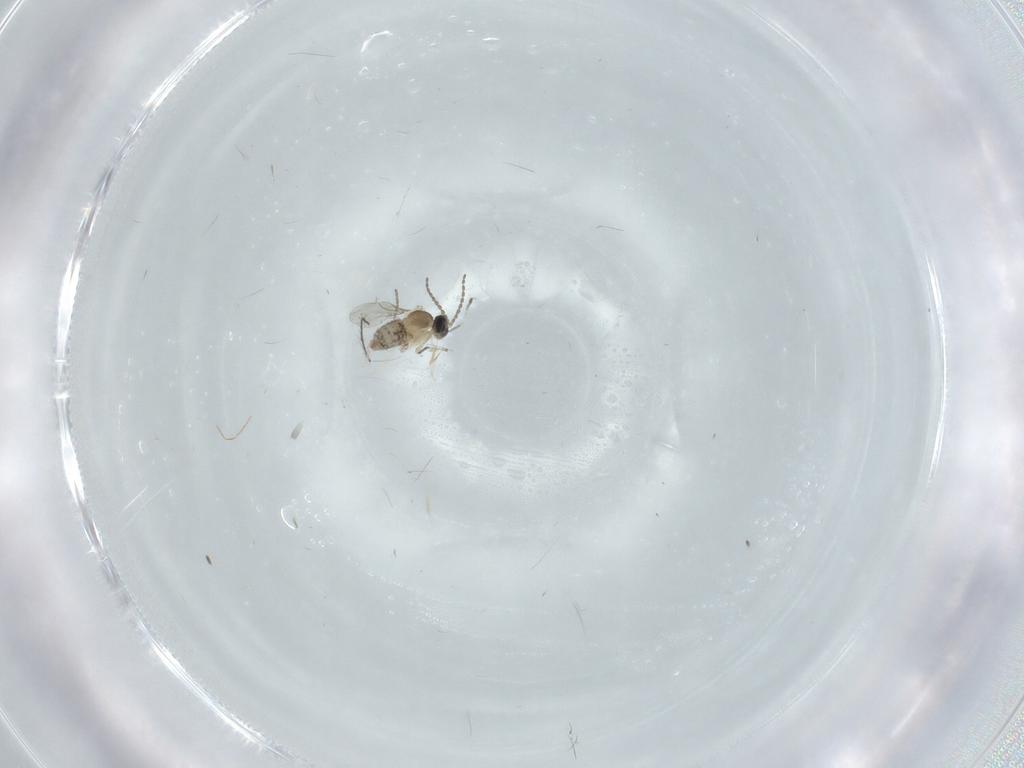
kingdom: Animalia
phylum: Arthropoda
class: Insecta
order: Diptera
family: Cecidomyiidae
